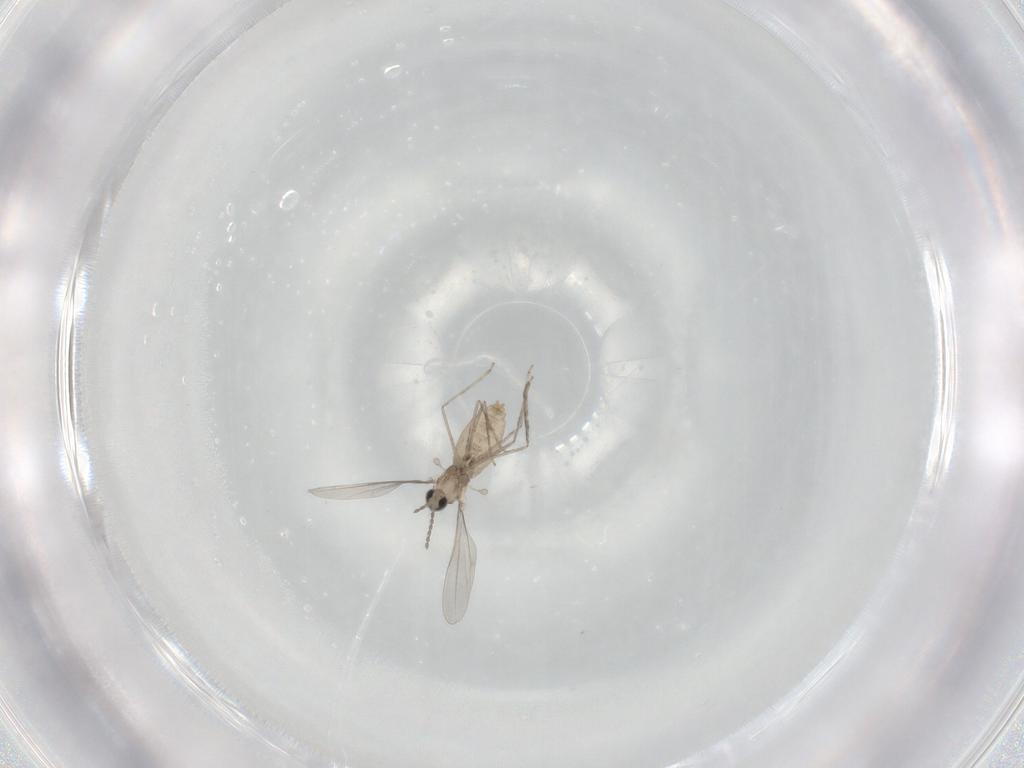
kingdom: Animalia
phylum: Arthropoda
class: Insecta
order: Diptera
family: Cecidomyiidae
